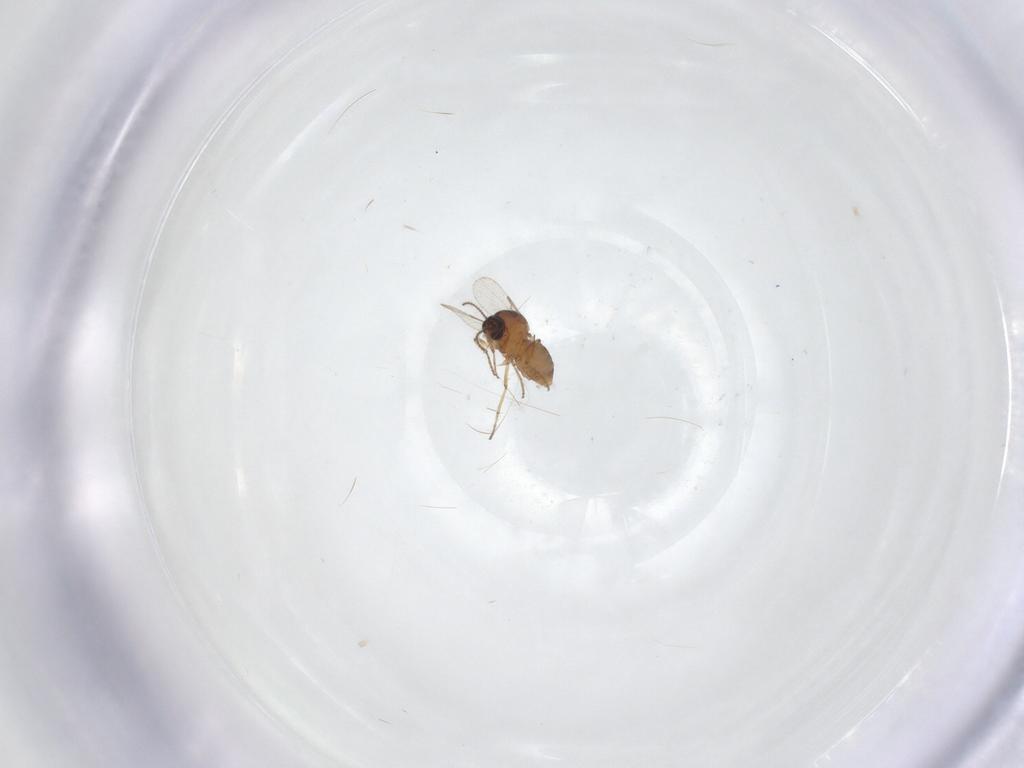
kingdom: Animalia
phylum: Arthropoda
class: Insecta
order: Diptera
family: Ceratopogonidae
